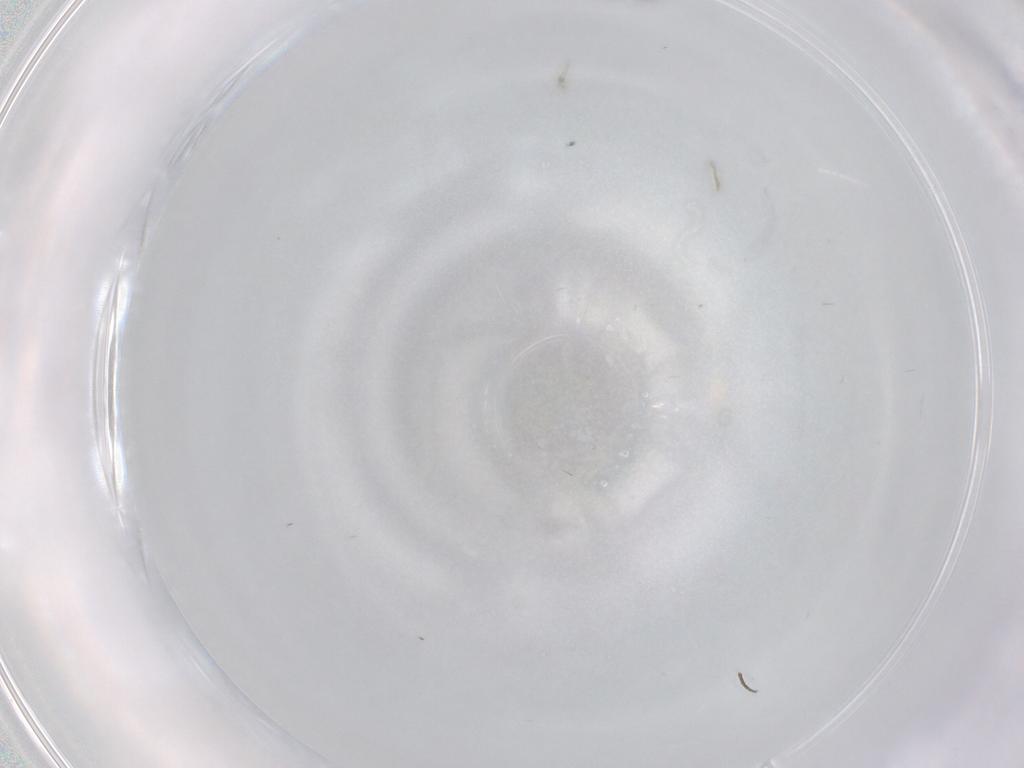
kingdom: Animalia
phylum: Arthropoda
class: Insecta
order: Diptera
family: Chironomidae
